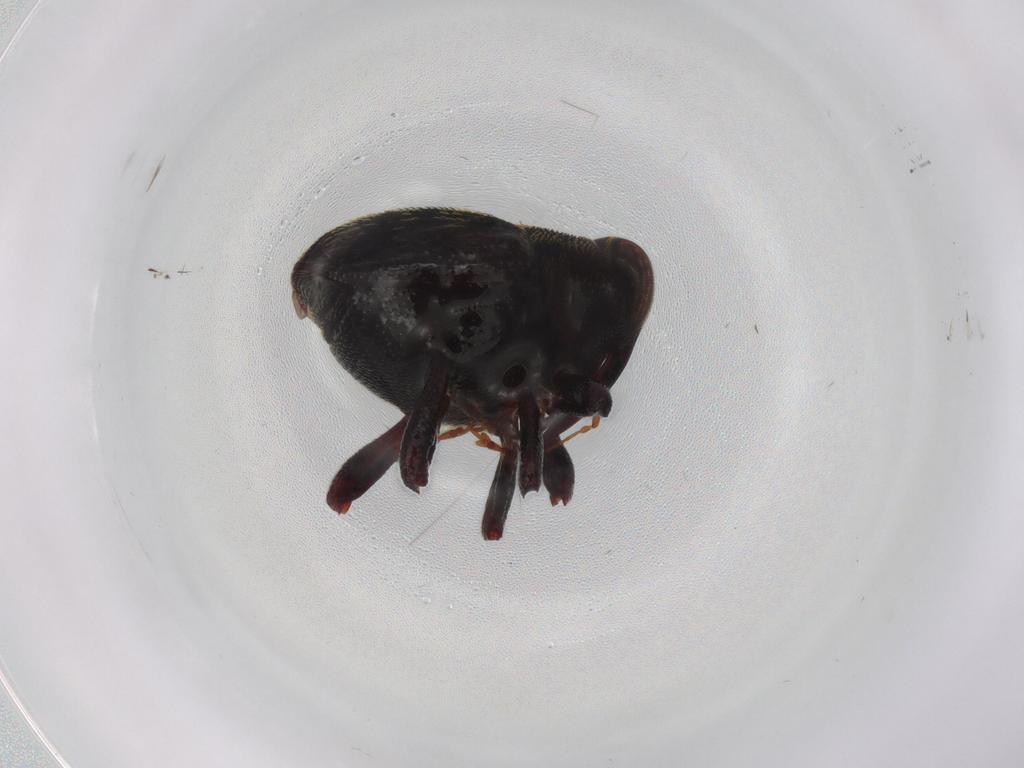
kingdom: Animalia
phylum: Arthropoda
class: Insecta
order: Coleoptera
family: Curculionidae
